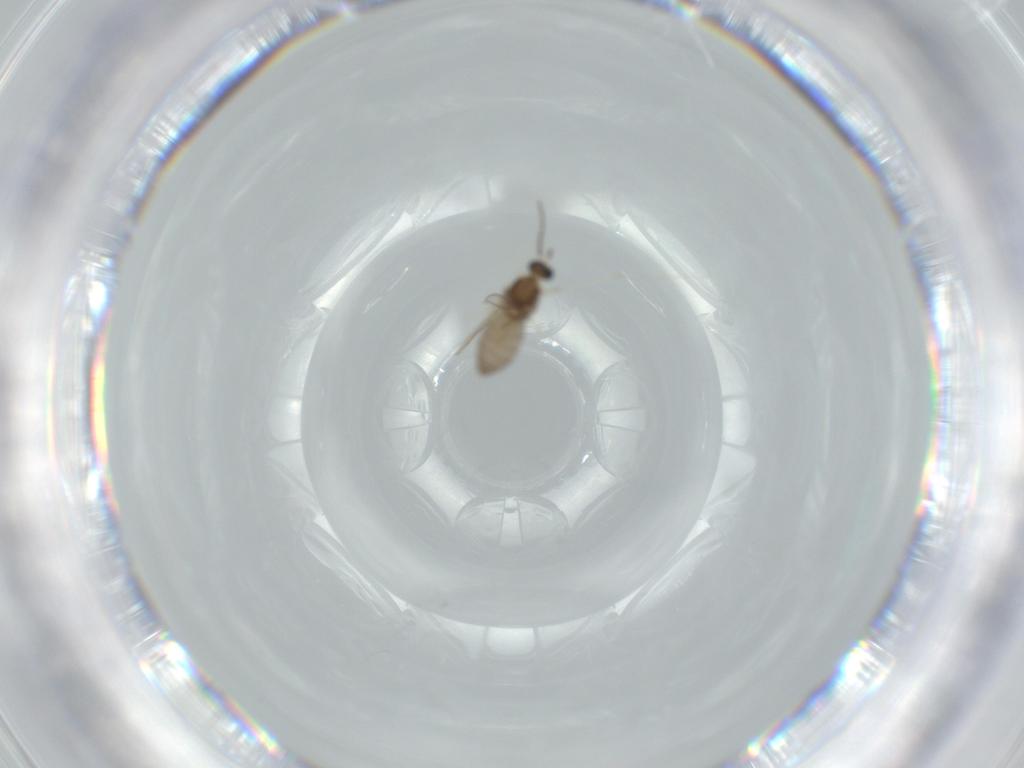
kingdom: Animalia
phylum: Arthropoda
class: Insecta
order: Diptera
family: Cecidomyiidae
